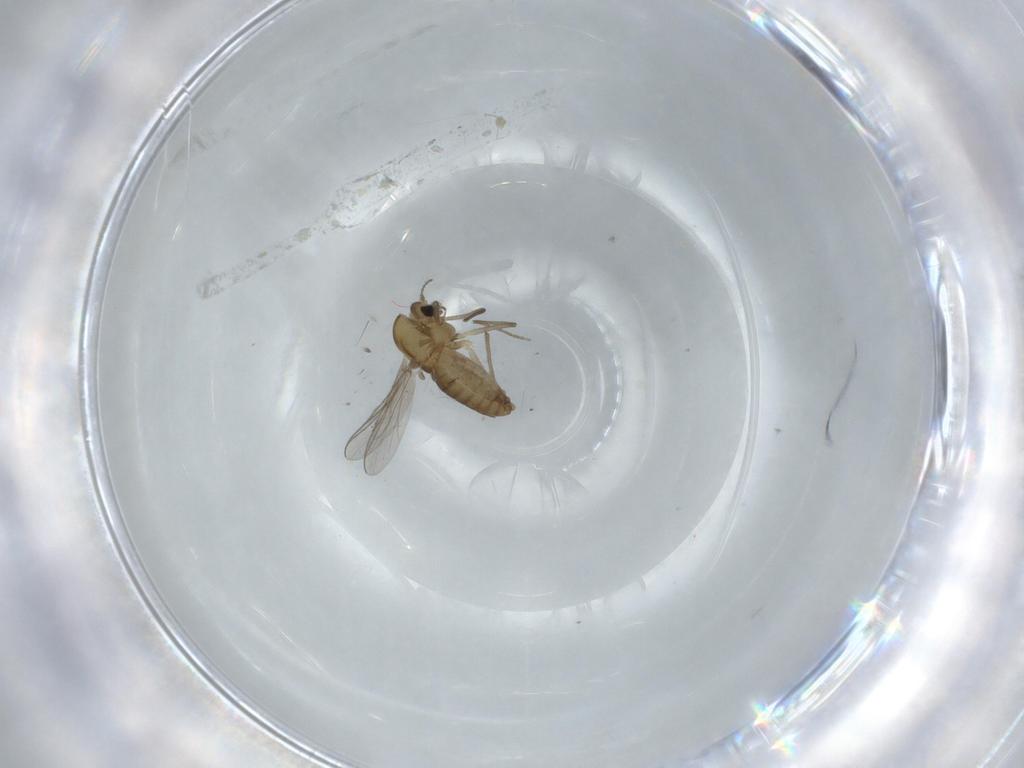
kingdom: Animalia
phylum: Arthropoda
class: Insecta
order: Diptera
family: Chironomidae
